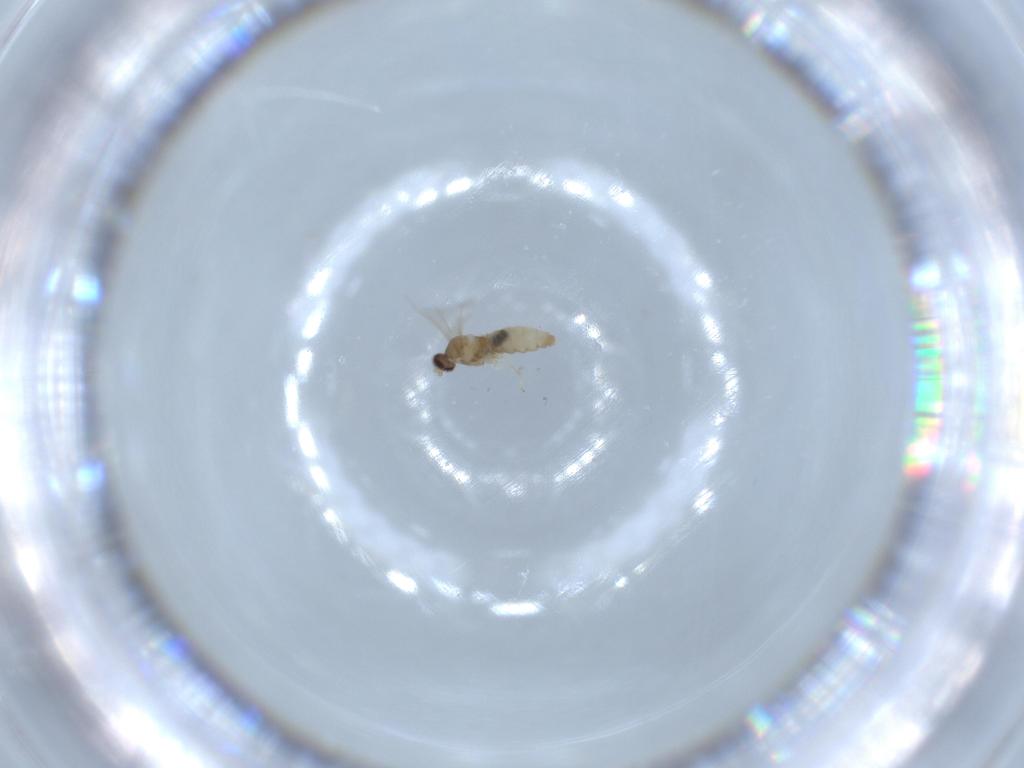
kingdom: Animalia
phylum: Arthropoda
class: Insecta
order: Diptera
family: Cecidomyiidae
